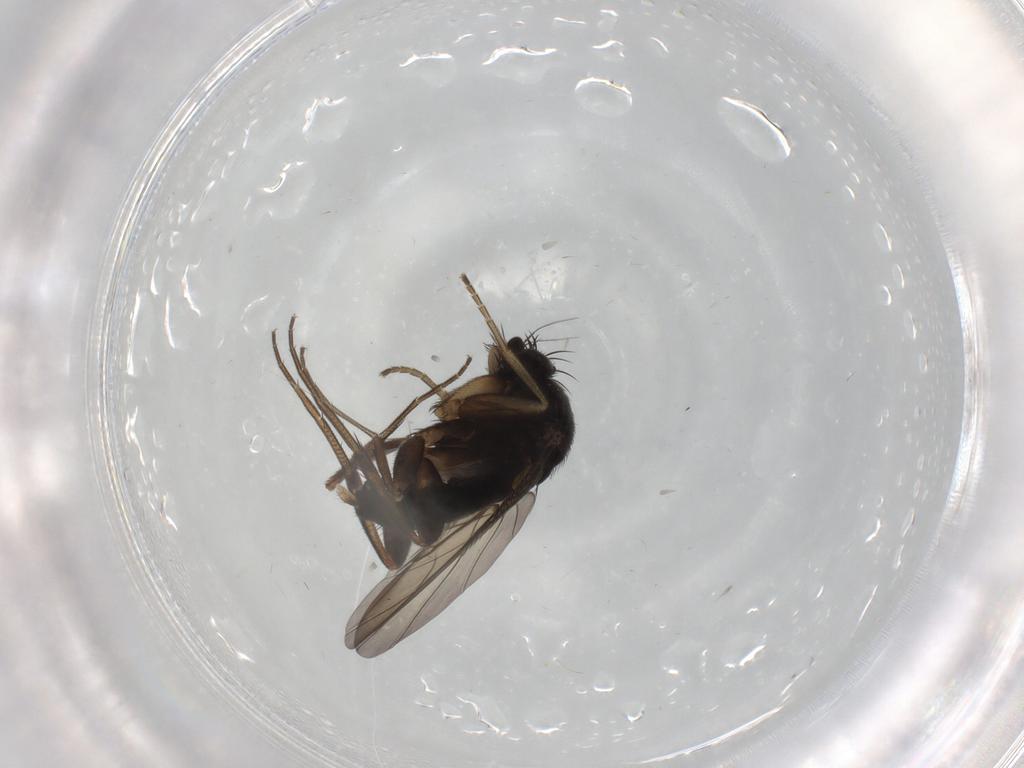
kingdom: Animalia
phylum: Arthropoda
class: Insecta
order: Diptera
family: Phoridae
